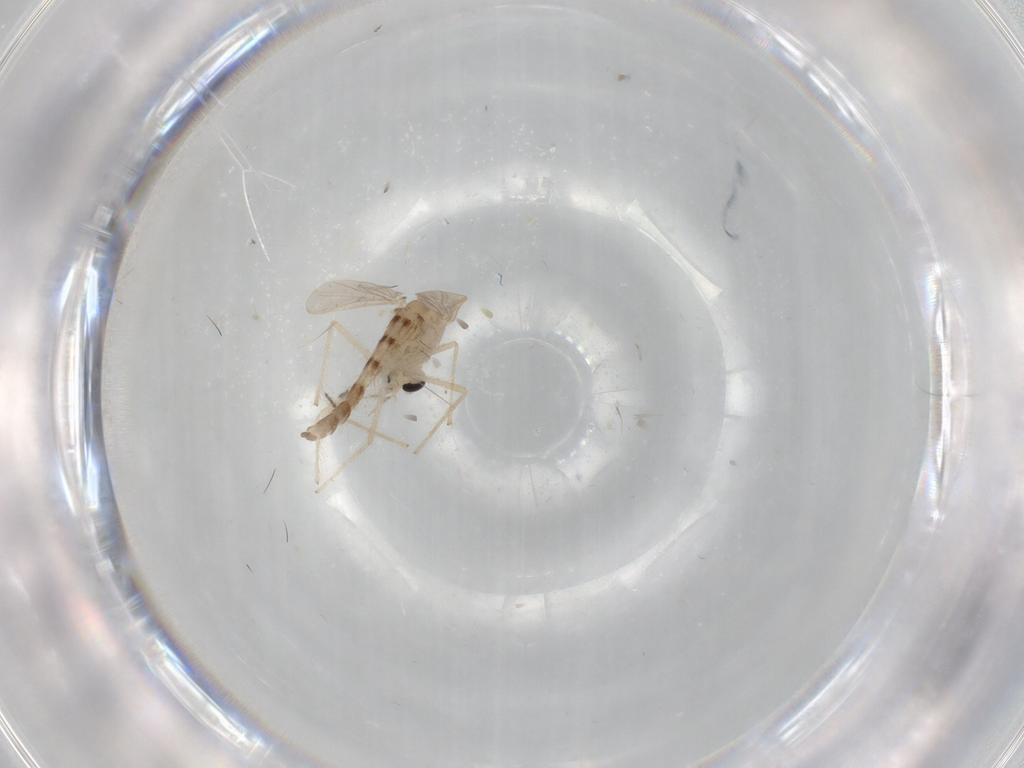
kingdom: Animalia
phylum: Arthropoda
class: Insecta
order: Diptera
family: Chironomidae
